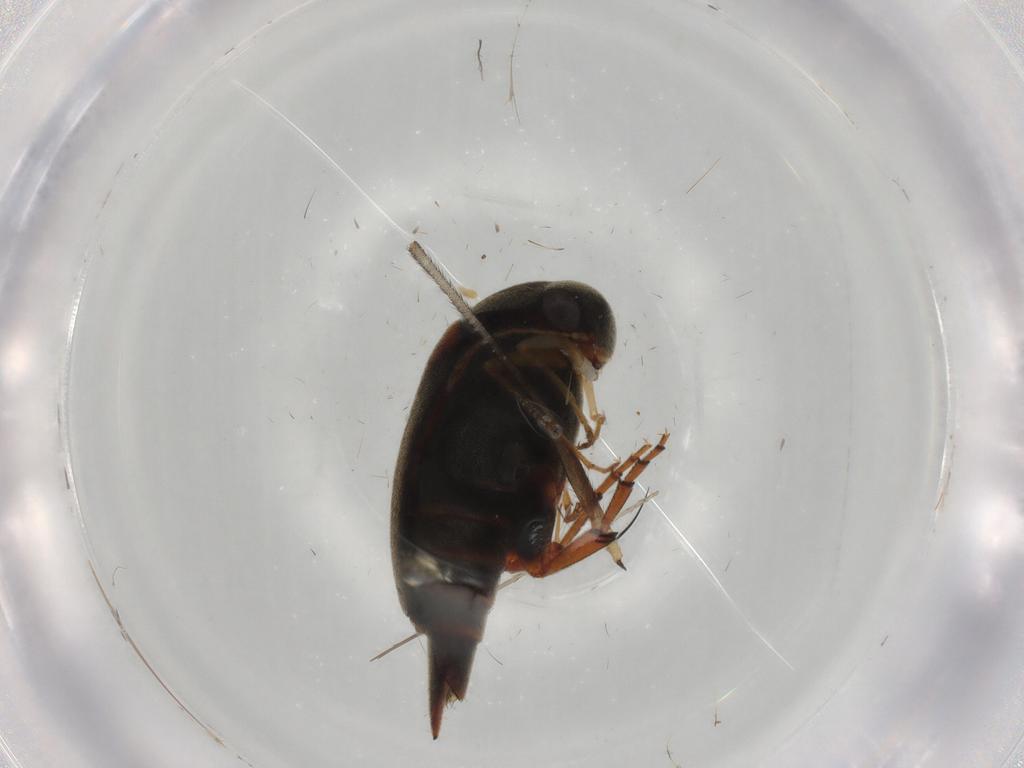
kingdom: Animalia
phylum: Arthropoda
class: Insecta
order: Coleoptera
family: Mordellidae
